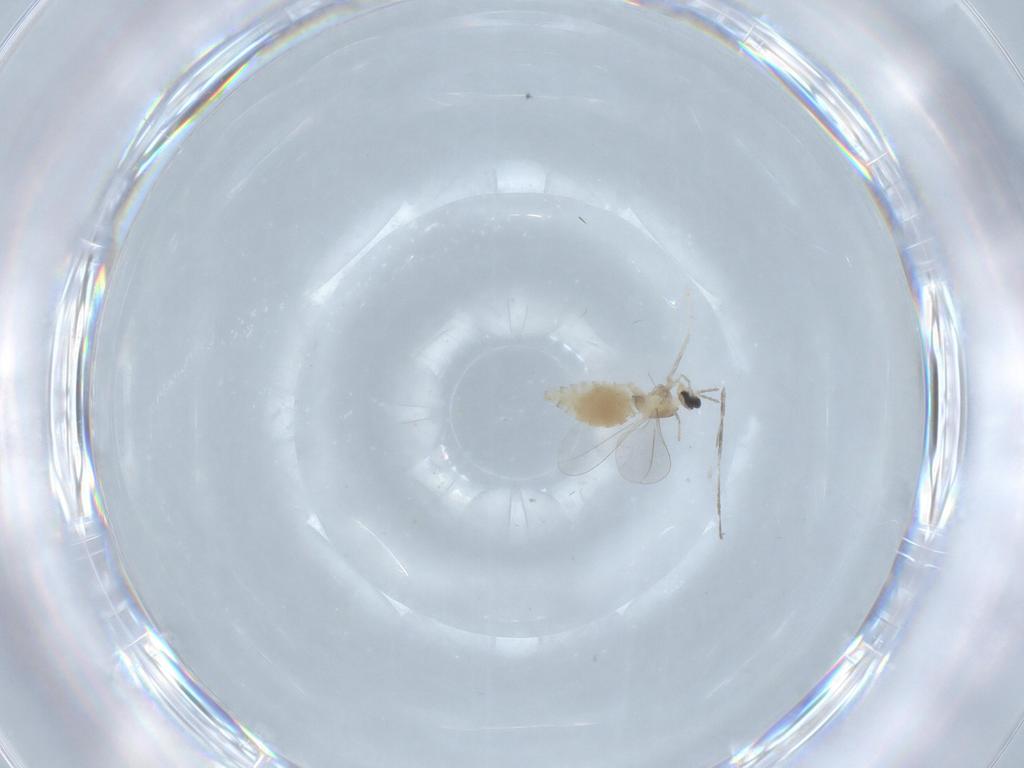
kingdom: Animalia
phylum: Arthropoda
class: Insecta
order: Diptera
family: Cecidomyiidae
